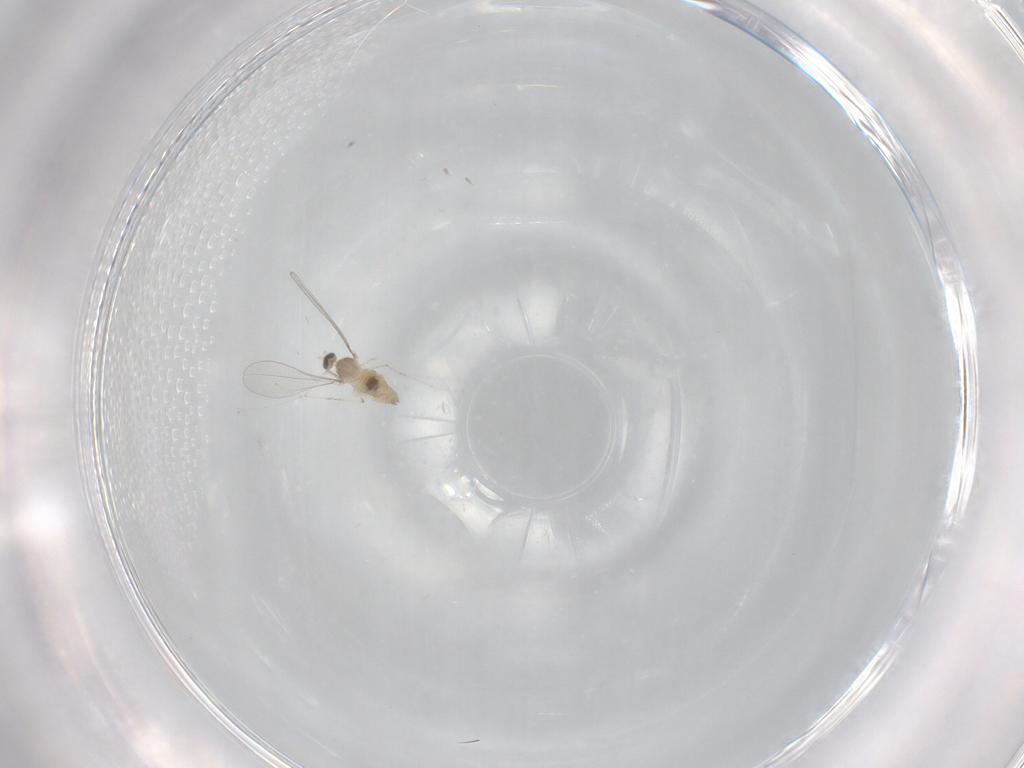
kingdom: Animalia
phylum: Arthropoda
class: Insecta
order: Diptera
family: Cecidomyiidae
